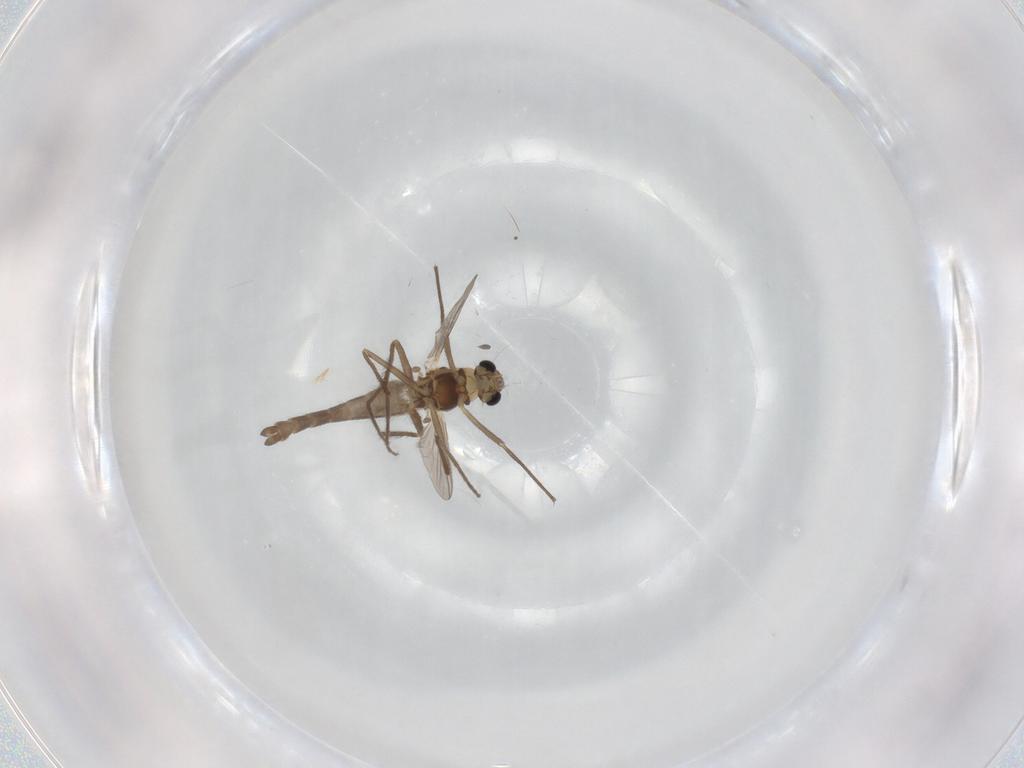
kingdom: Animalia
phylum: Arthropoda
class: Insecta
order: Diptera
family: Chironomidae
